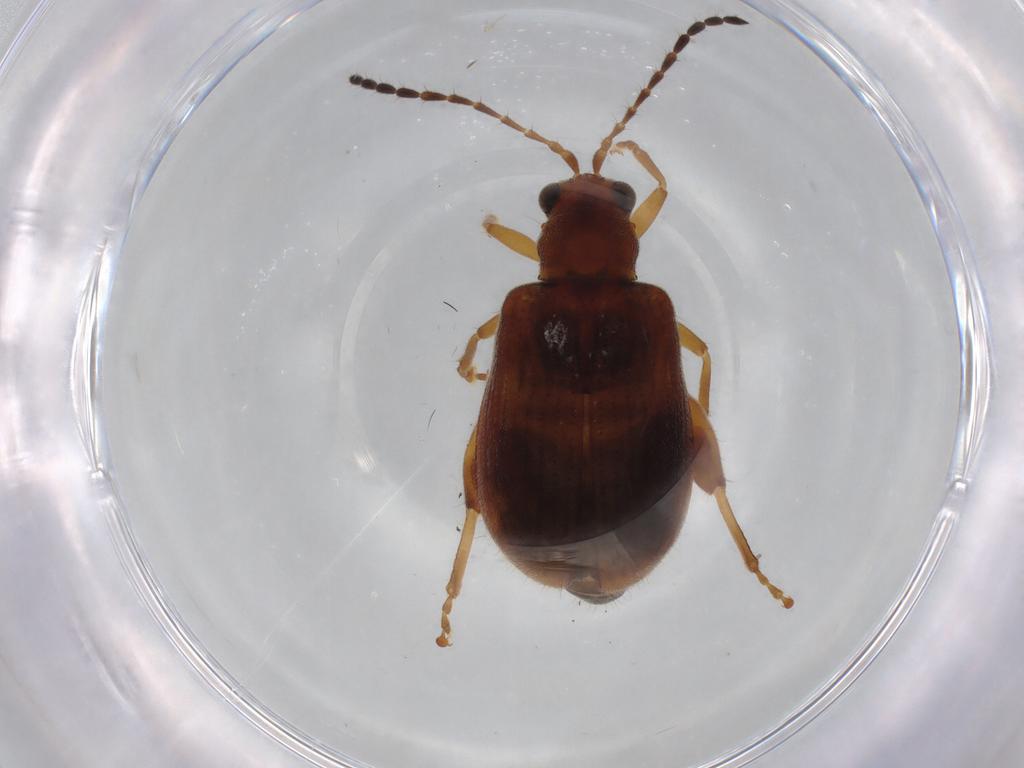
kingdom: Animalia
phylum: Arthropoda
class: Insecta
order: Coleoptera
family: Chrysomelidae
